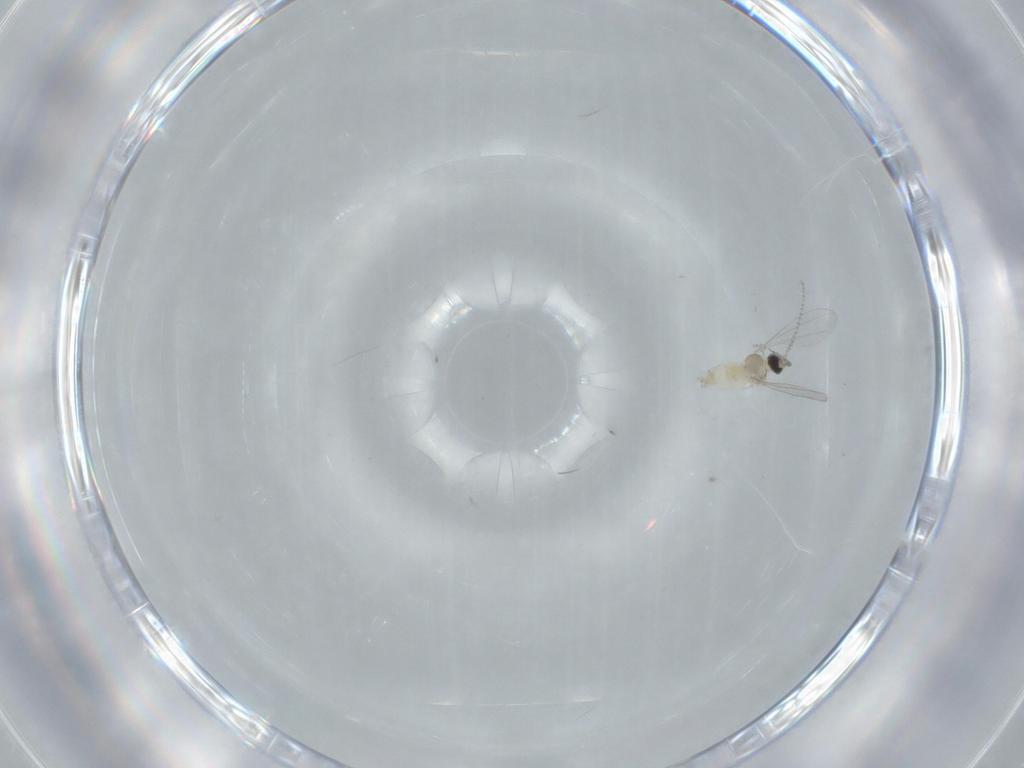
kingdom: Animalia
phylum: Arthropoda
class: Insecta
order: Diptera
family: Cecidomyiidae
